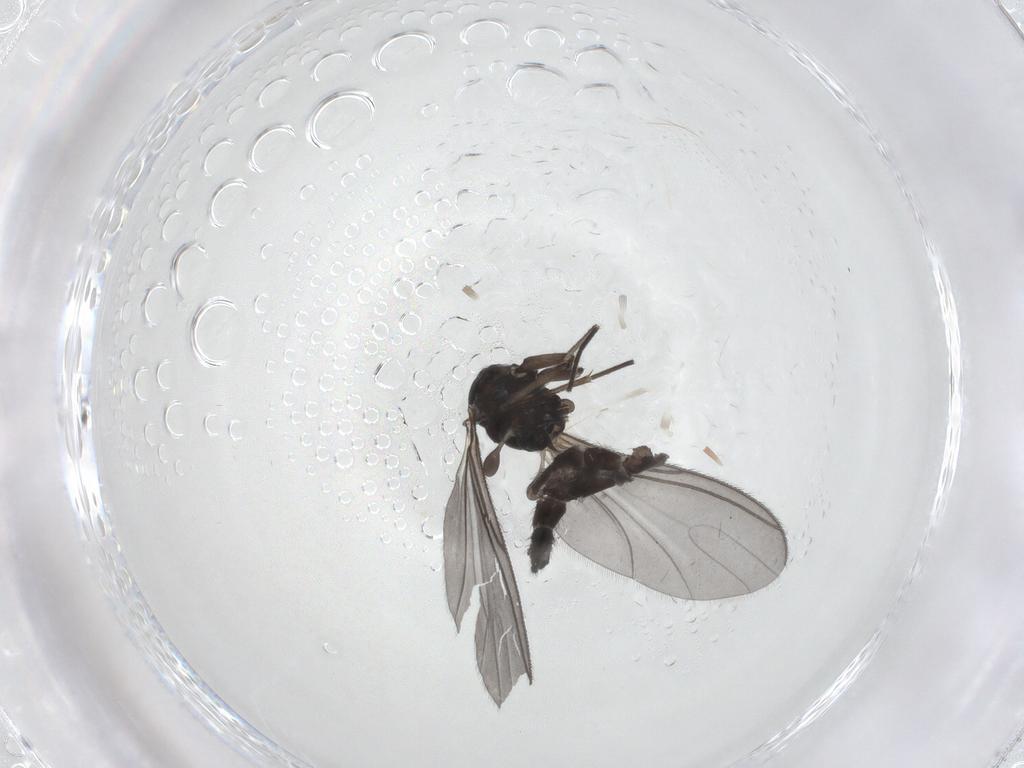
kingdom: Animalia
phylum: Arthropoda
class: Insecta
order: Diptera
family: Sciaridae
